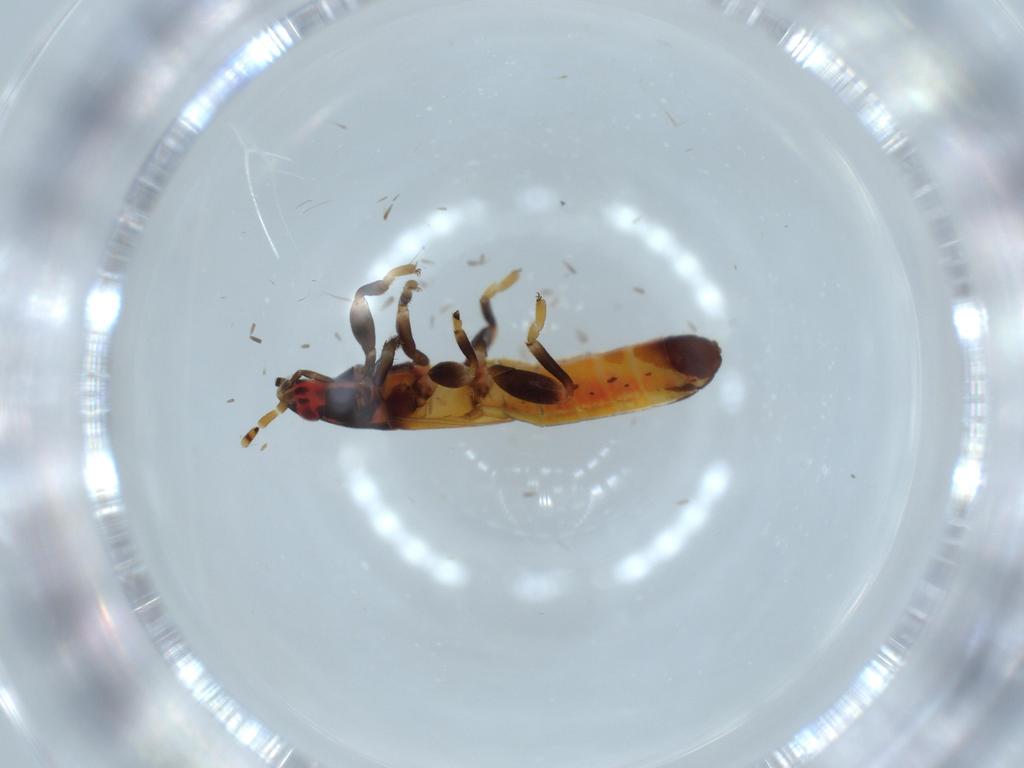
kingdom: Animalia
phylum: Arthropoda
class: Insecta
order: Hemiptera
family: Blissidae
